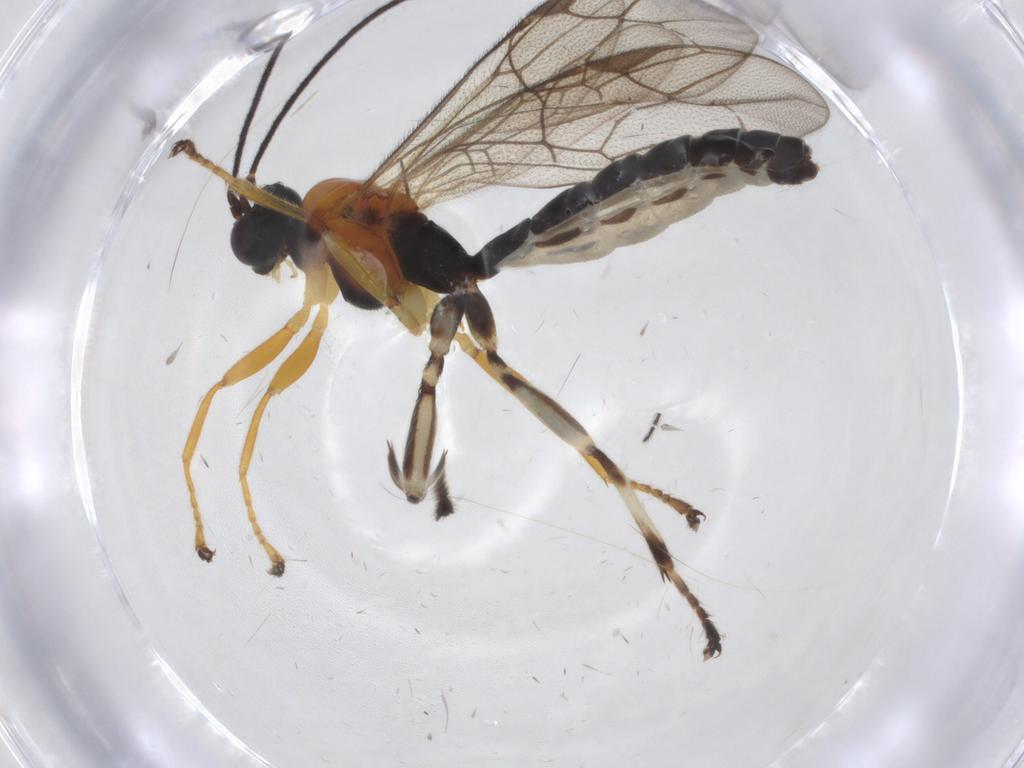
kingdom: Animalia
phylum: Arthropoda
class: Insecta
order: Hymenoptera
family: Ichneumonidae
